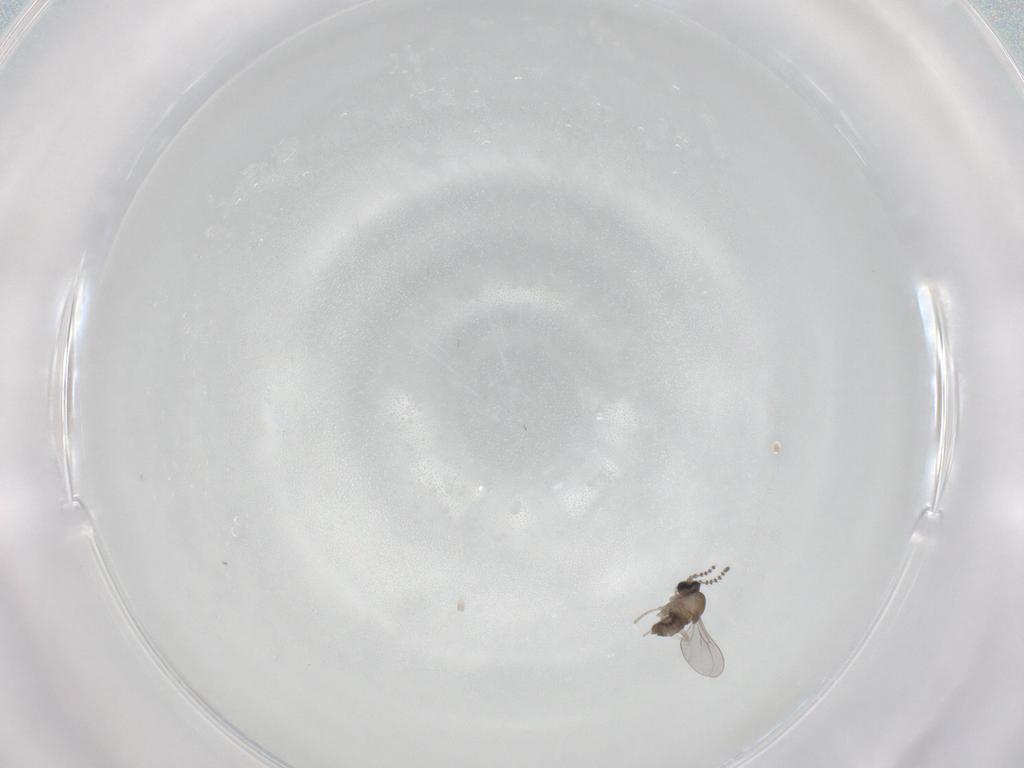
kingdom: Animalia
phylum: Arthropoda
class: Insecta
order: Diptera
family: Cecidomyiidae
